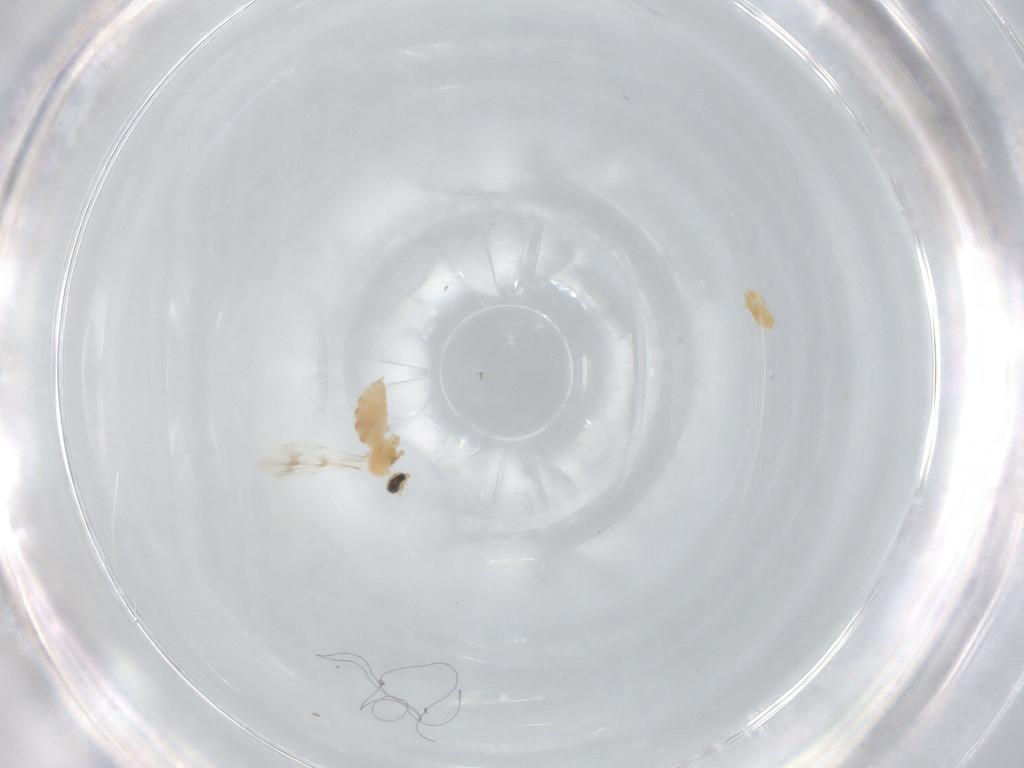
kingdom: Animalia
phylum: Arthropoda
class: Insecta
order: Diptera
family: Cecidomyiidae
